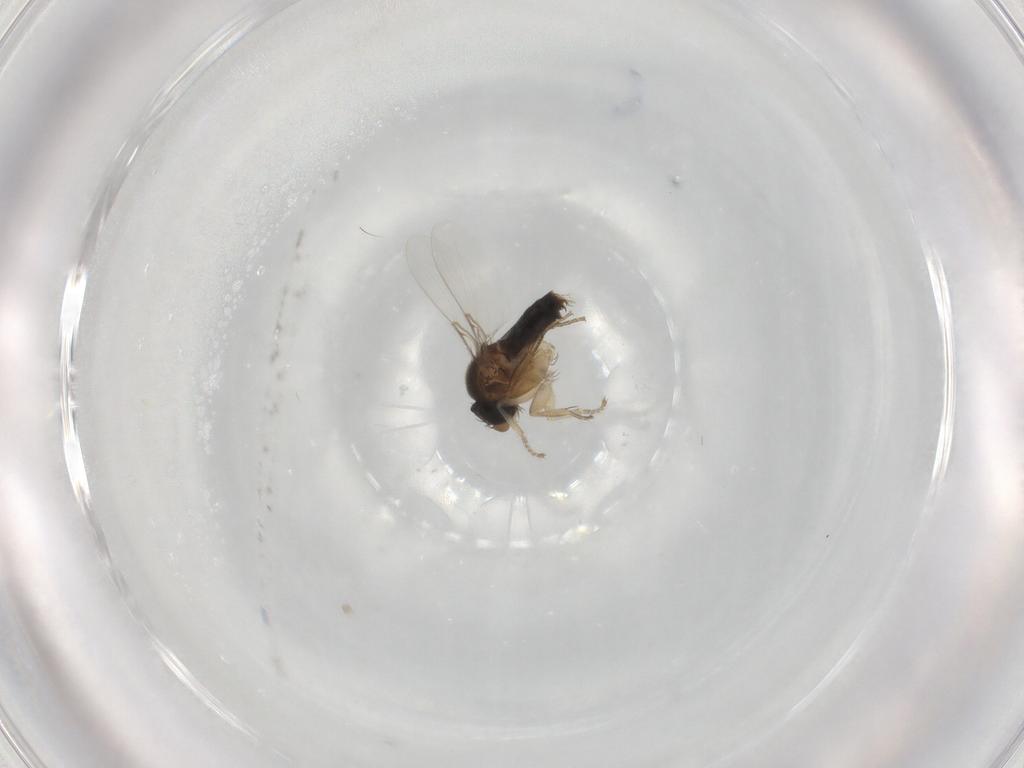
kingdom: Animalia
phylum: Arthropoda
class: Insecta
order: Diptera
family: Phoridae
